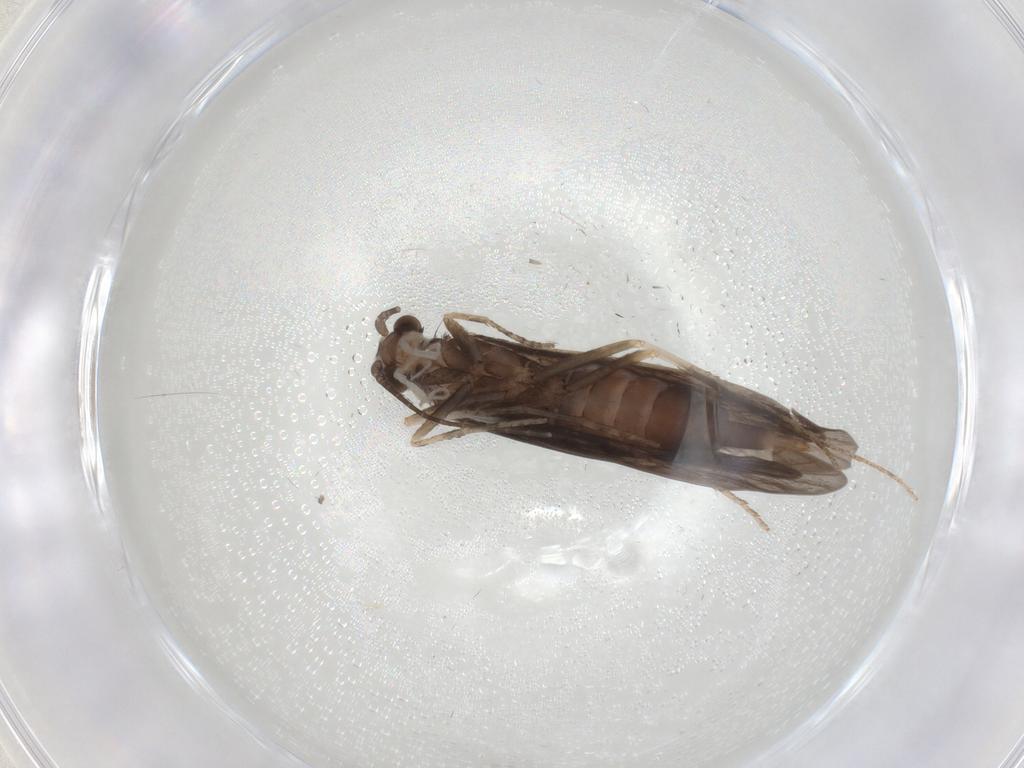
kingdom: Animalia
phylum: Arthropoda
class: Insecta
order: Trichoptera
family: Xiphocentronidae
